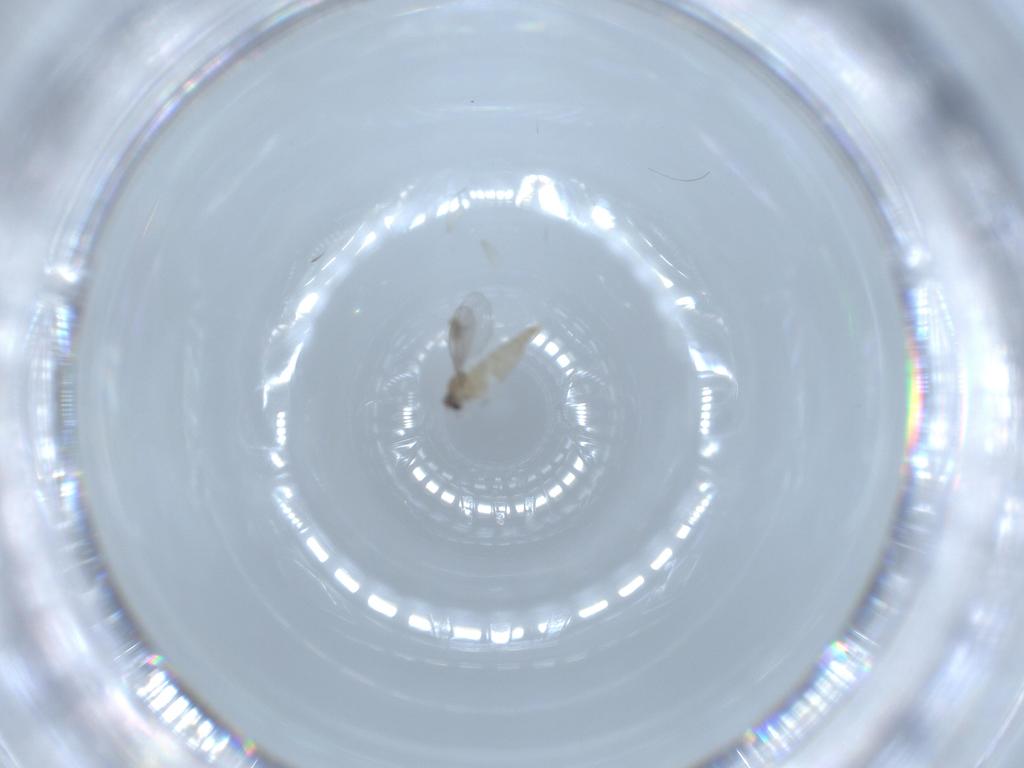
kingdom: Animalia
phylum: Arthropoda
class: Insecta
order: Diptera
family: Cecidomyiidae
